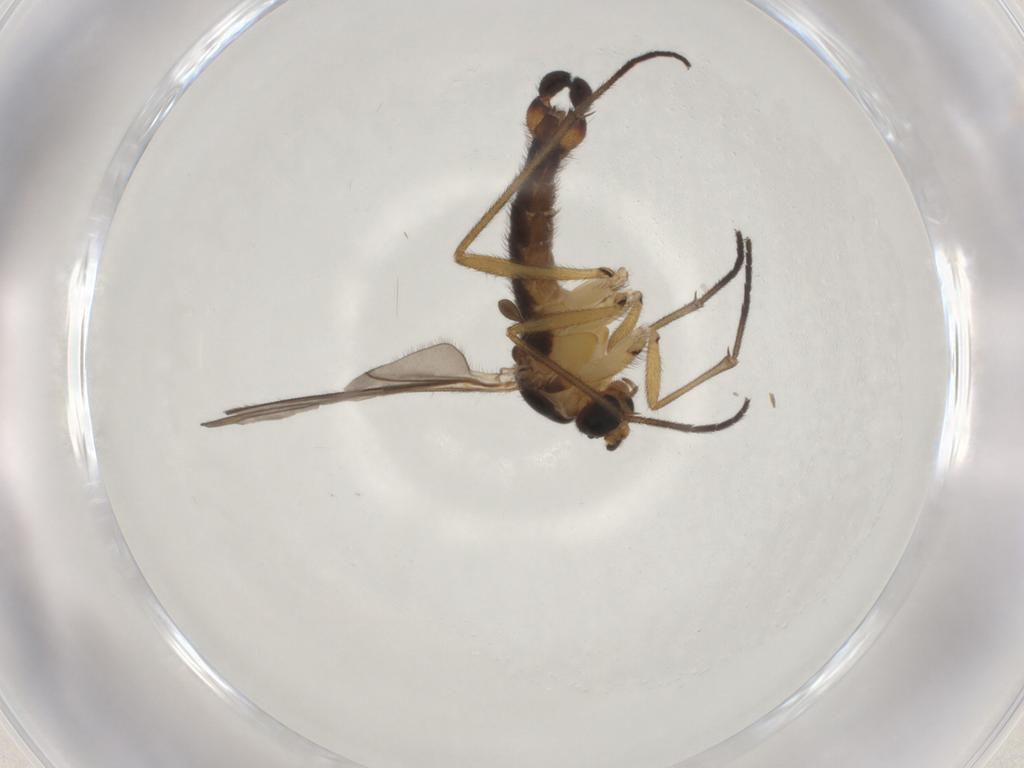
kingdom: Animalia
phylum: Arthropoda
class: Insecta
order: Diptera
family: Sciaridae
